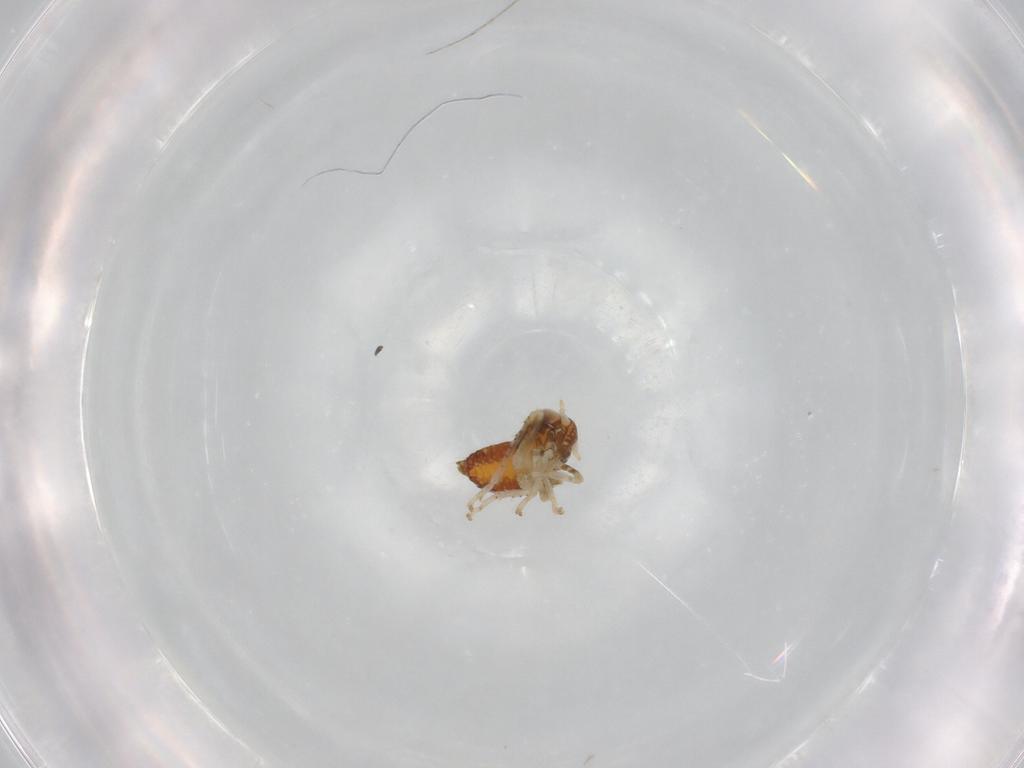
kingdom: Animalia
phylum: Arthropoda
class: Insecta
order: Hemiptera
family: Cicadellidae
